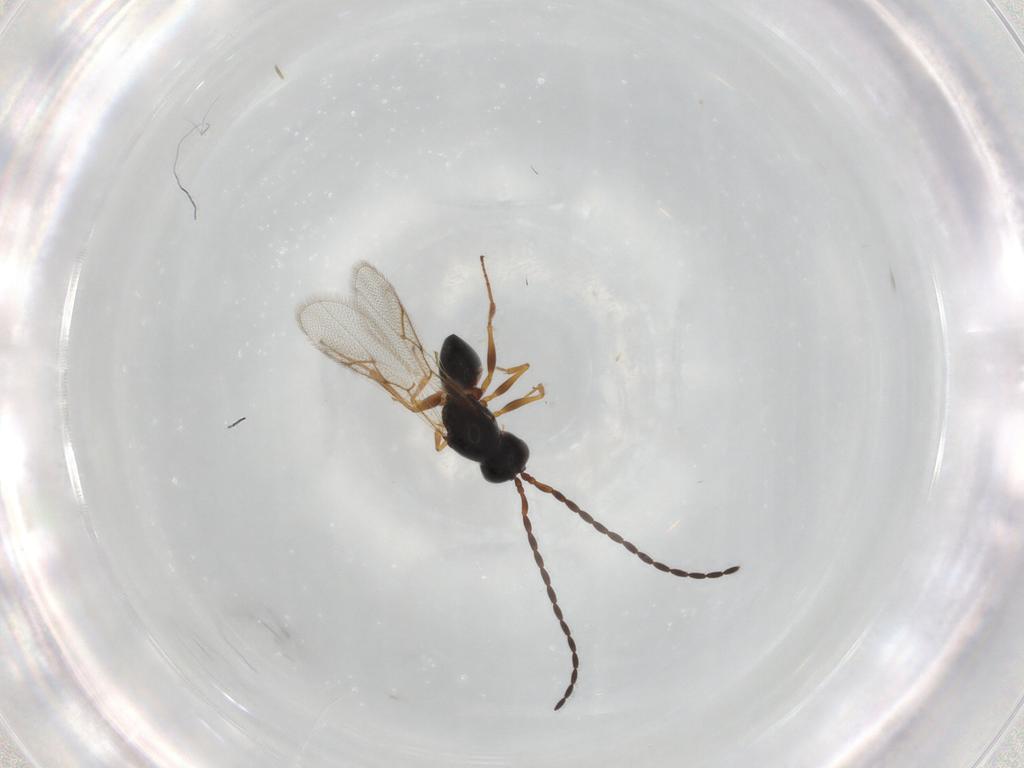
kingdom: Animalia
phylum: Arthropoda
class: Insecta
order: Hymenoptera
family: Figitidae
